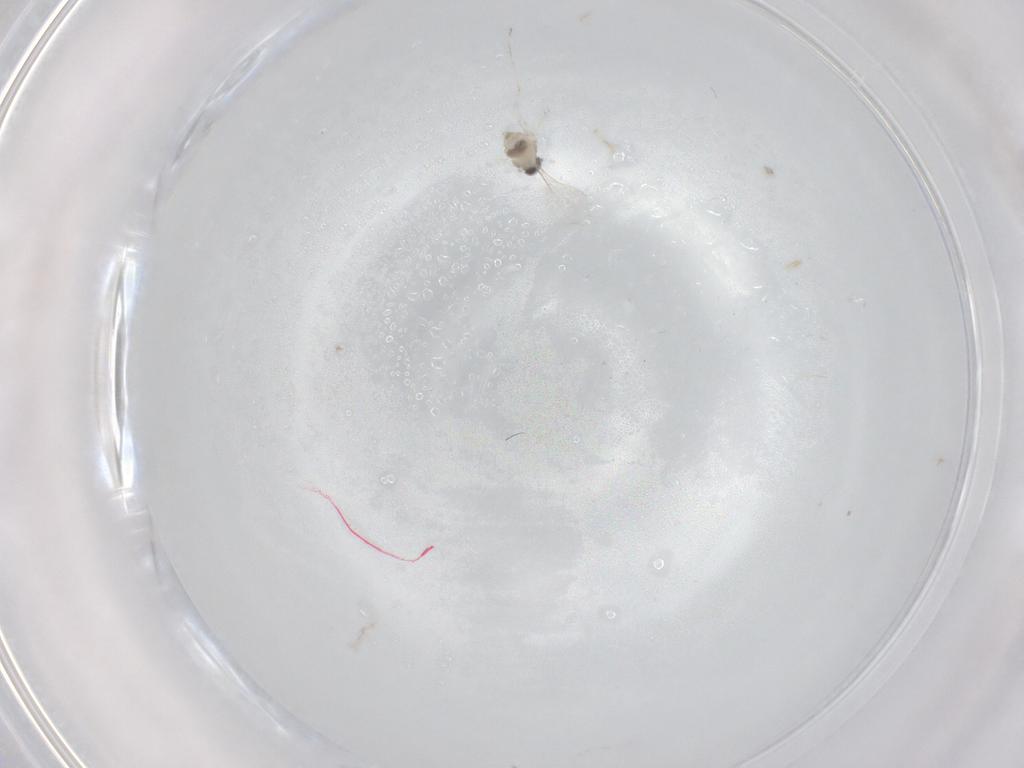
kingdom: Animalia
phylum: Arthropoda
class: Insecta
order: Diptera
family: Cecidomyiidae
